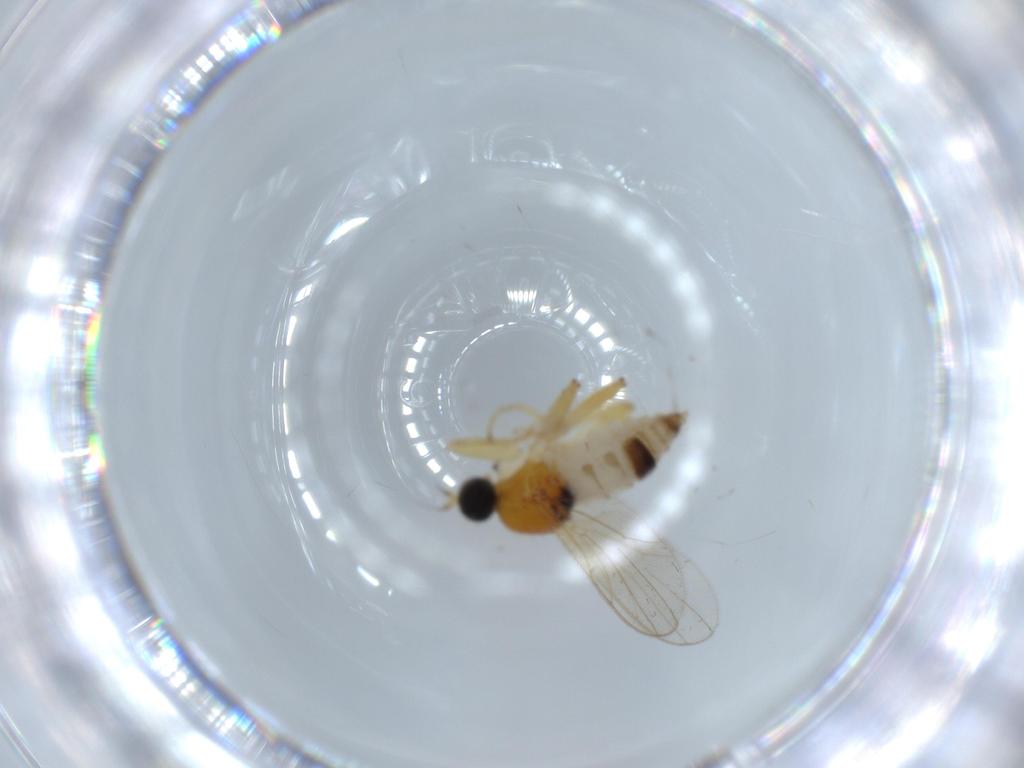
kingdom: Animalia
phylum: Arthropoda
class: Insecta
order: Diptera
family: Hybotidae
